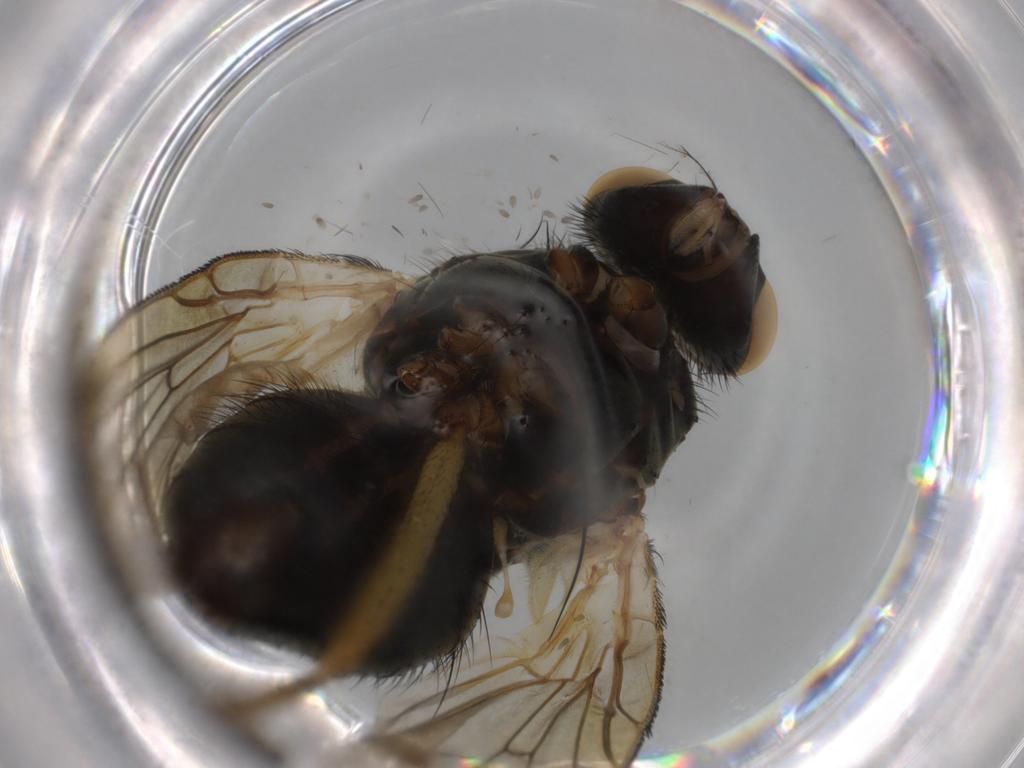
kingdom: Animalia
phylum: Arthropoda
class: Insecta
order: Diptera
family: Muscidae
